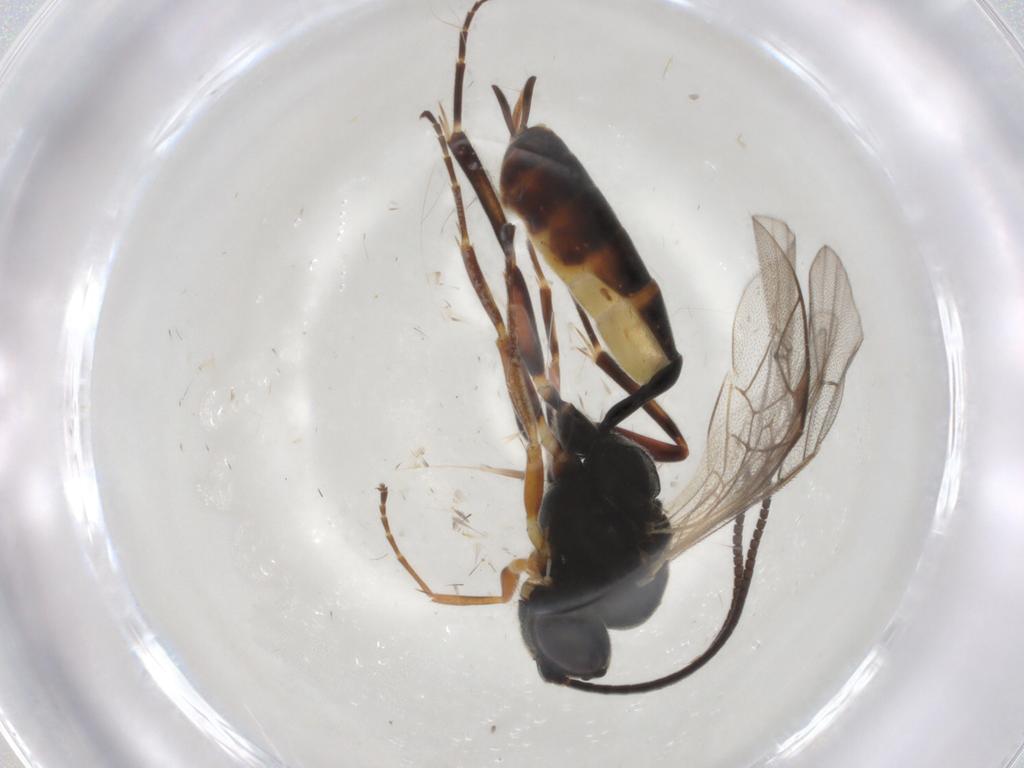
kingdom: Animalia
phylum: Arthropoda
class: Insecta
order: Hymenoptera
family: Ichneumonidae
